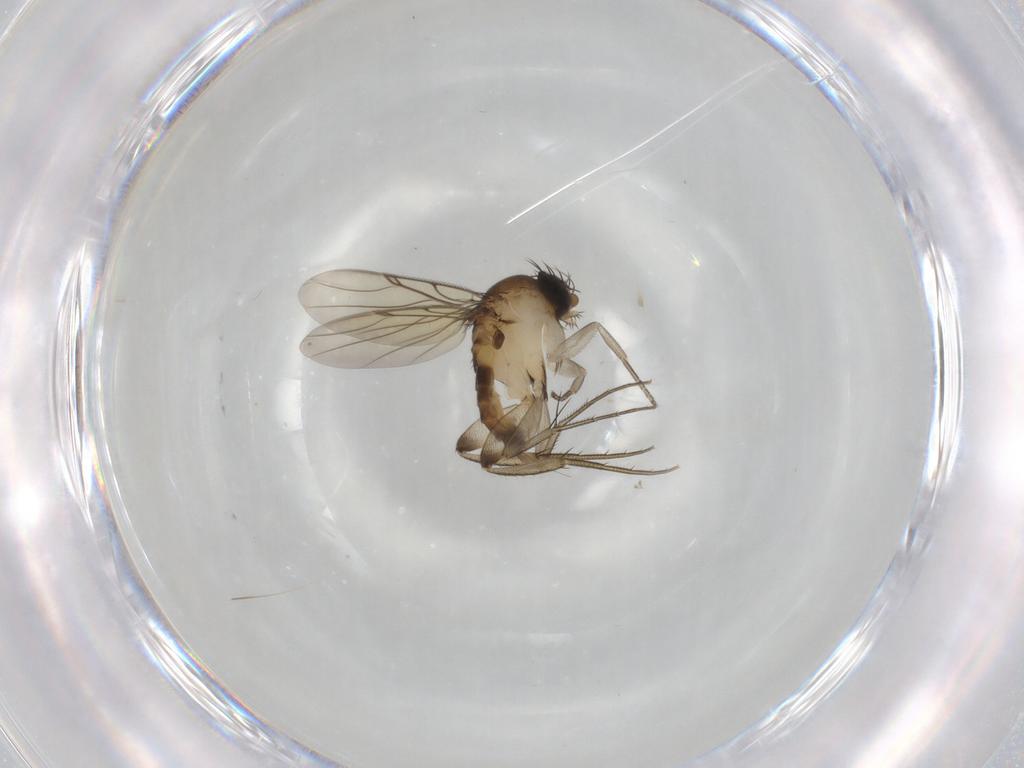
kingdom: Animalia
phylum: Arthropoda
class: Insecta
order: Diptera
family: Phoridae
